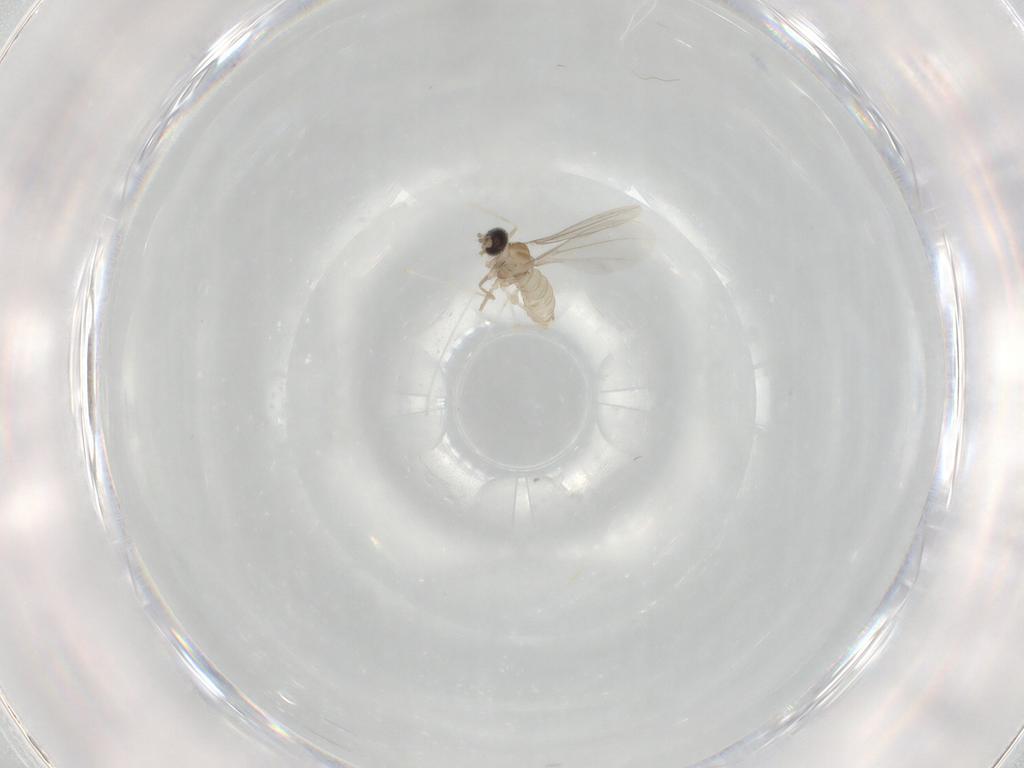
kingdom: Animalia
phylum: Arthropoda
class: Insecta
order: Diptera
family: Cecidomyiidae
